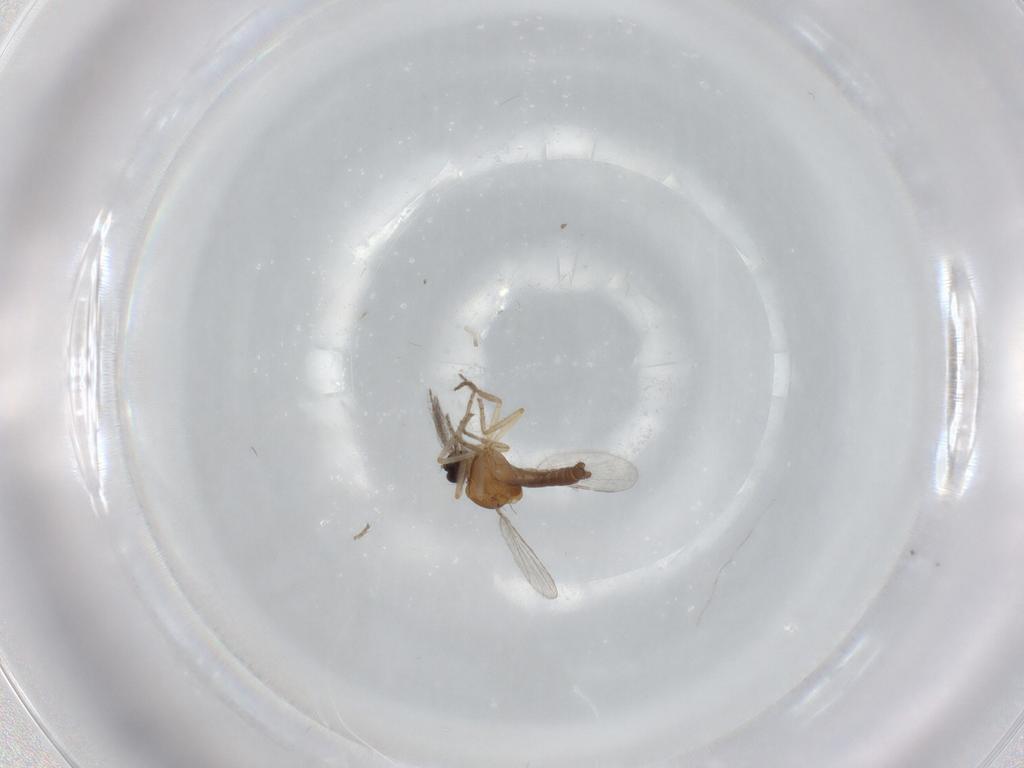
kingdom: Animalia
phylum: Arthropoda
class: Insecta
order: Diptera
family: Ceratopogonidae
